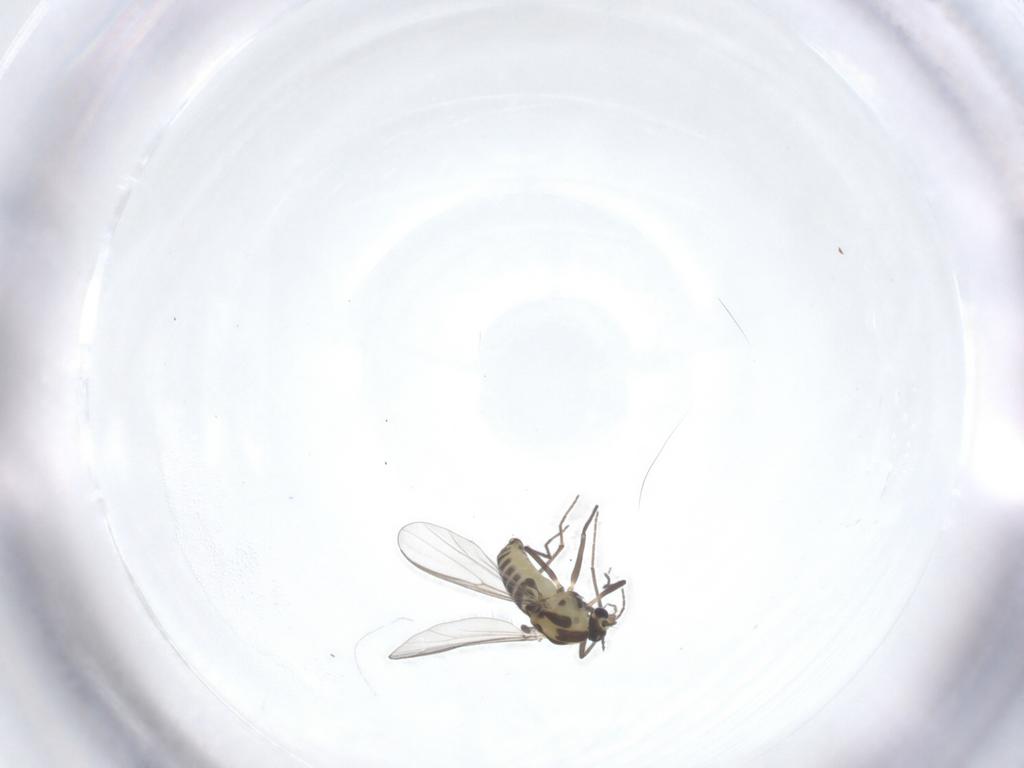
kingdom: Animalia
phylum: Arthropoda
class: Insecta
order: Diptera
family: Chironomidae
